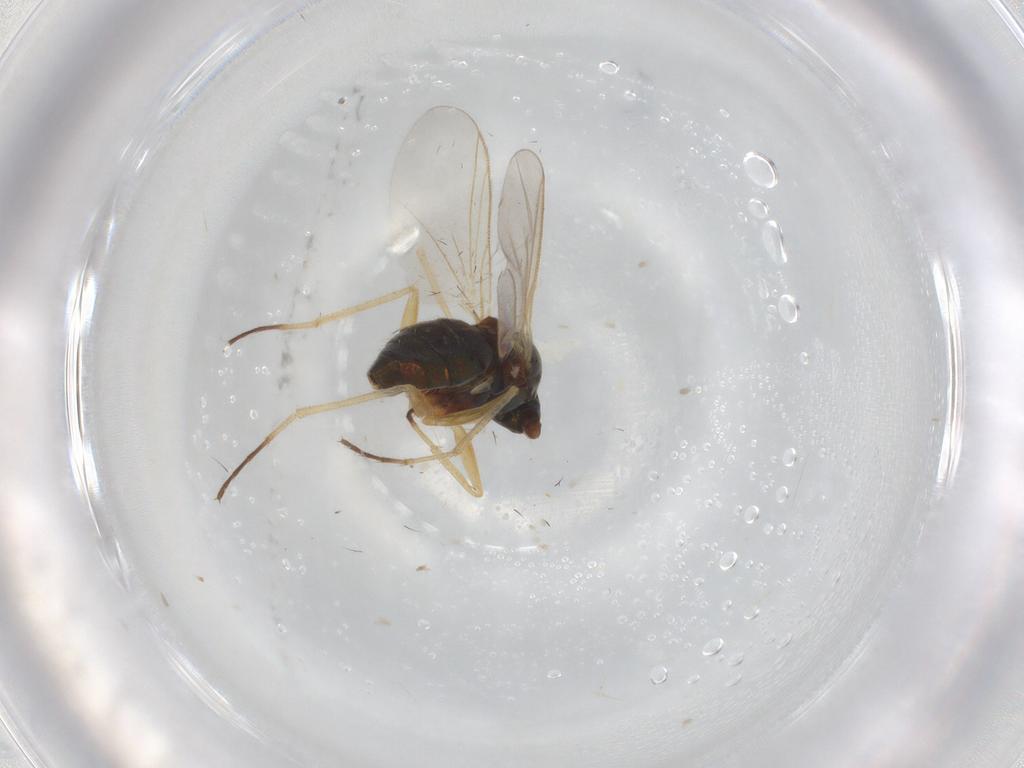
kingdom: Animalia
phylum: Arthropoda
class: Insecta
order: Diptera
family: Dolichopodidae
